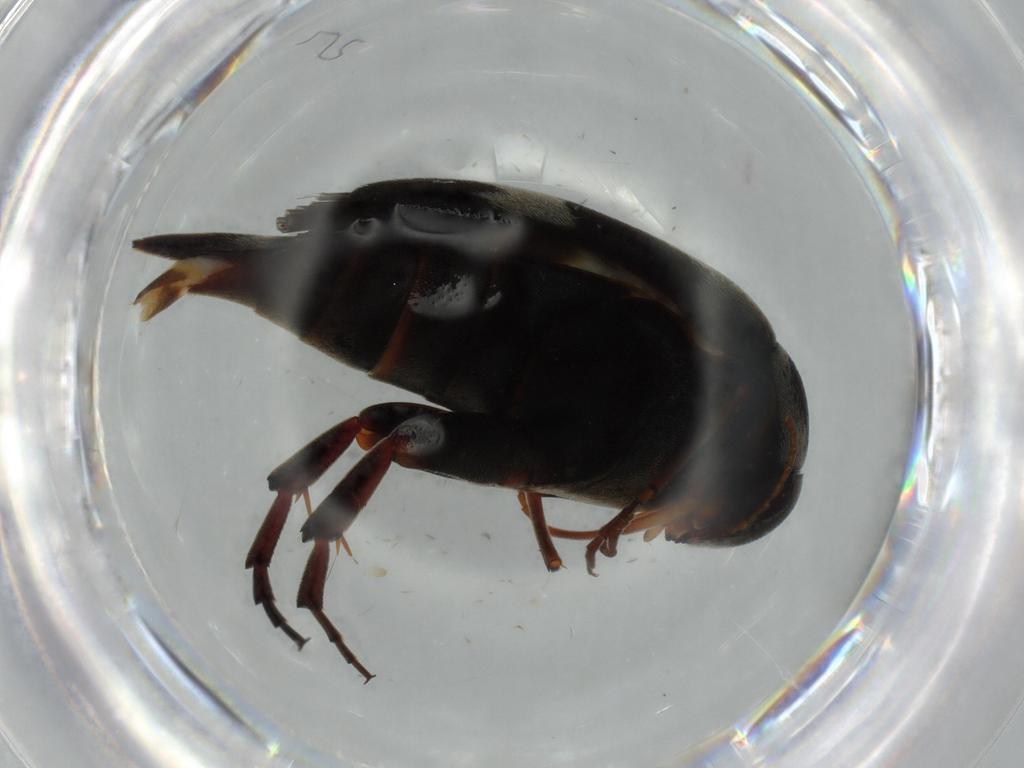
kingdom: Animalia
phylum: Arthropoda
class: Insecta
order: Coleoptera
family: Mordellidae
